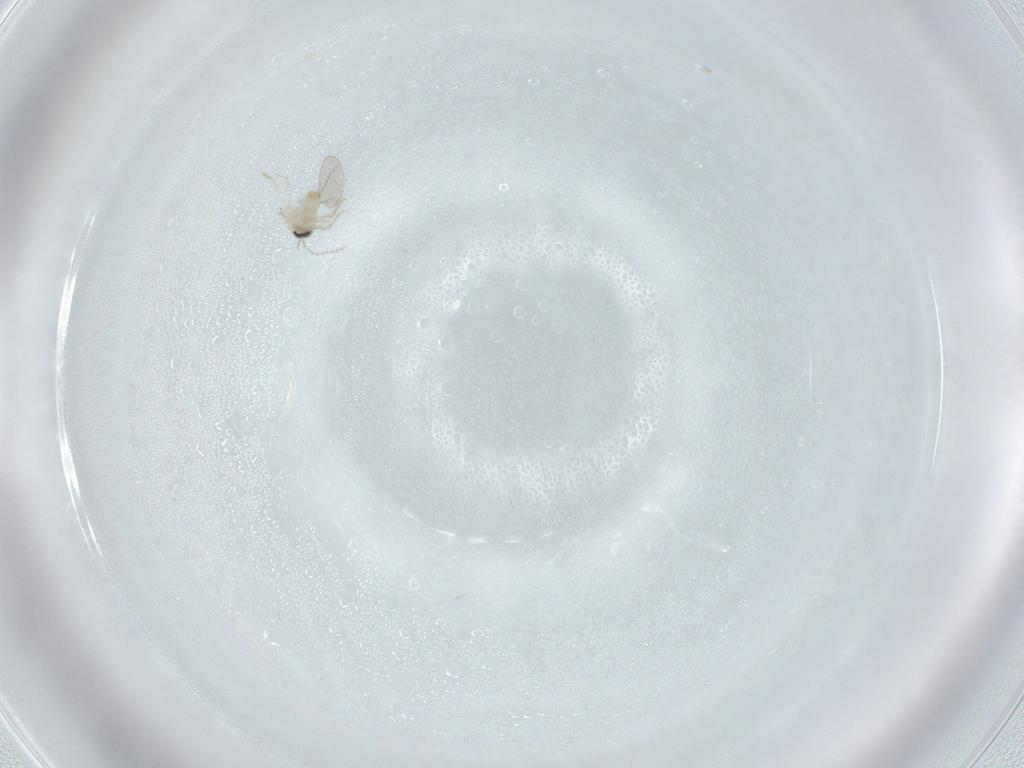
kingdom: Animalia
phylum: Arthropoda
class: Insecta
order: Diptera
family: Cecidomyiidae
